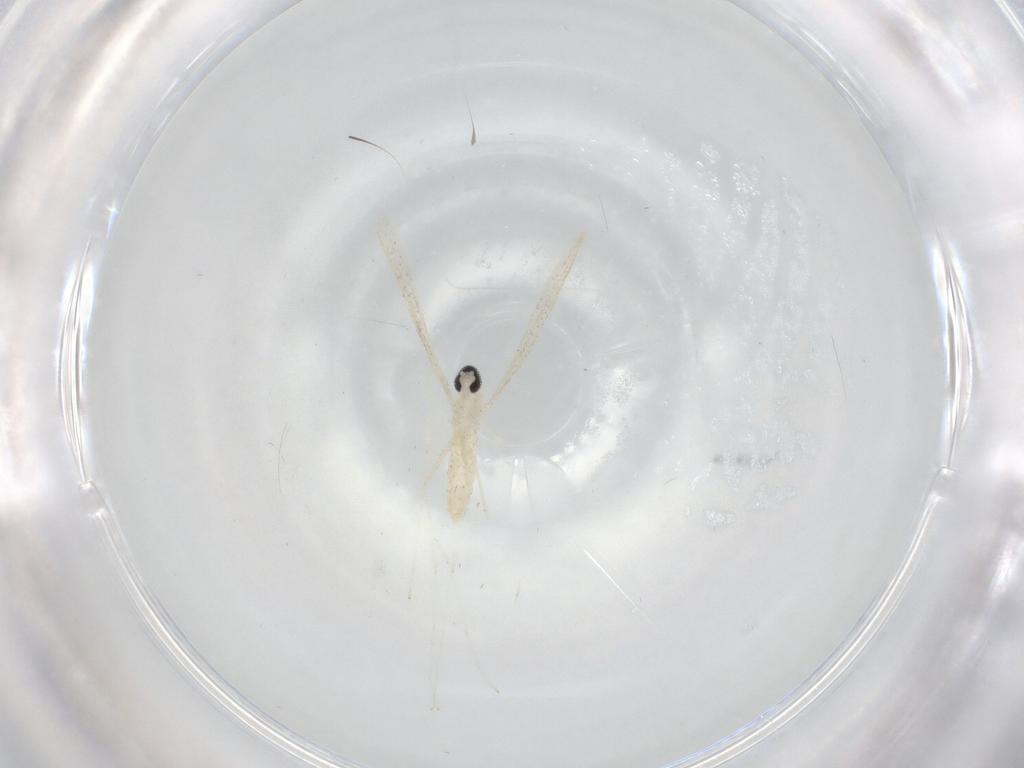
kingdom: Animalia
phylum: Arthropoda
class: Insecta
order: Diptera
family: Cecidomyiidae
